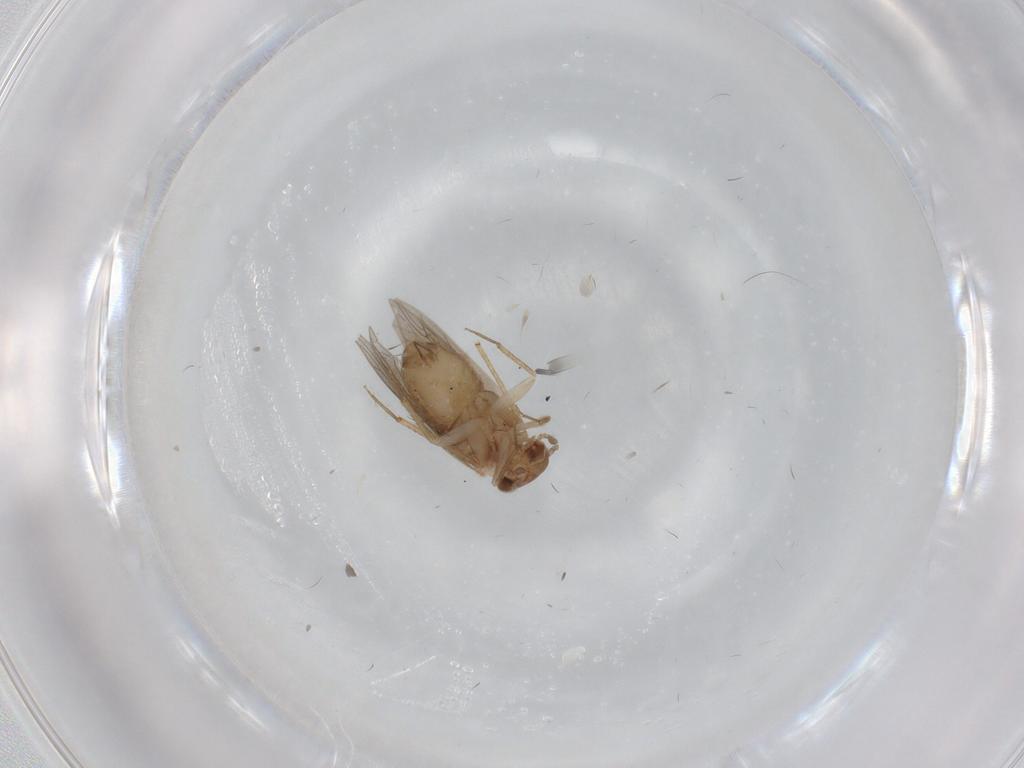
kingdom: Animalia
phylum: Arthropoda
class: Insecta
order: Psocodea
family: Lepidopsocidae
